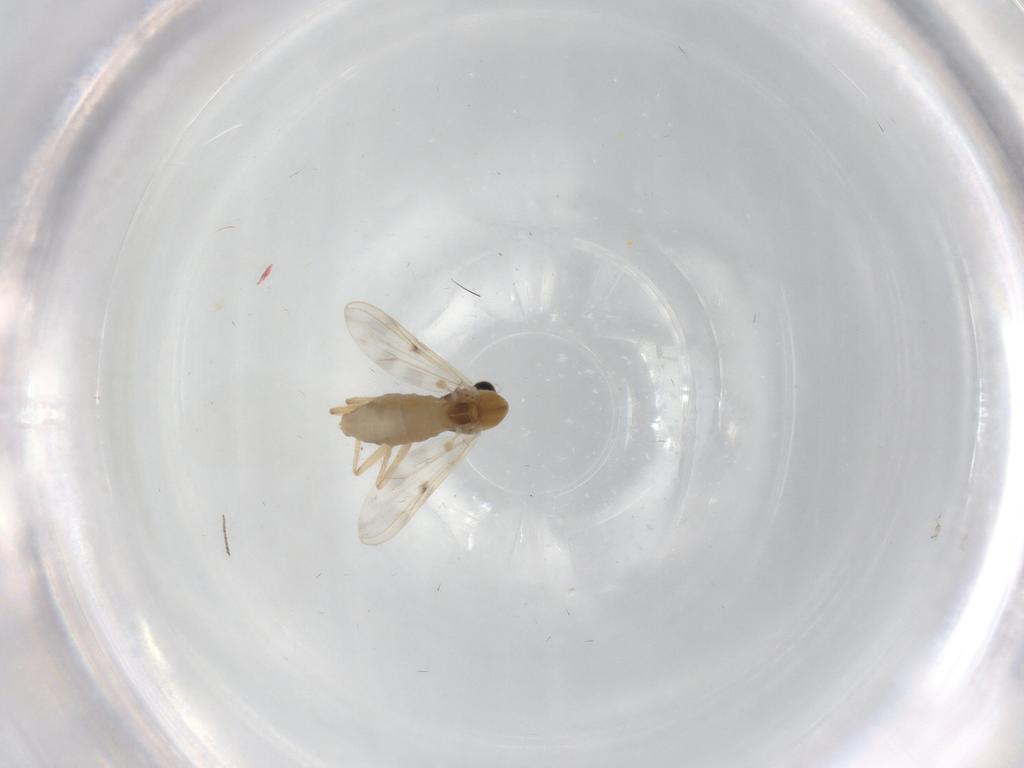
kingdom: Animalia
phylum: Arthropoda
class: Insecta
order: Diptera
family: Chironomidae
